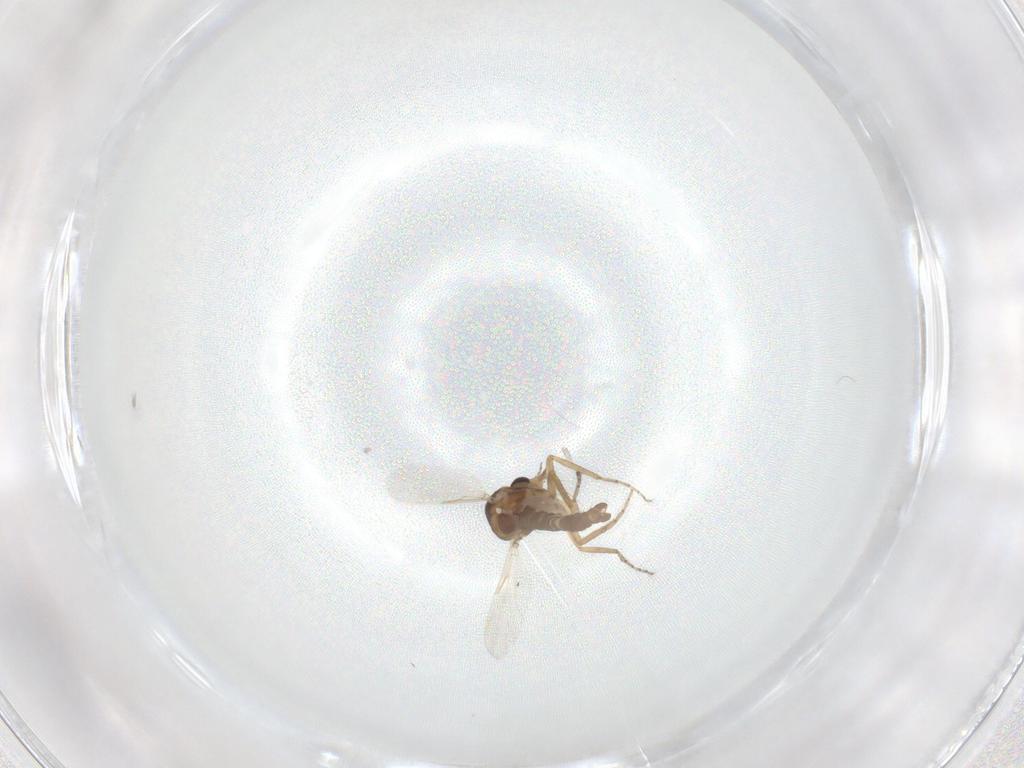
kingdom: Animalia
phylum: Arthropoda
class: Insecta
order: Diptera
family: Ceratopogonidae
